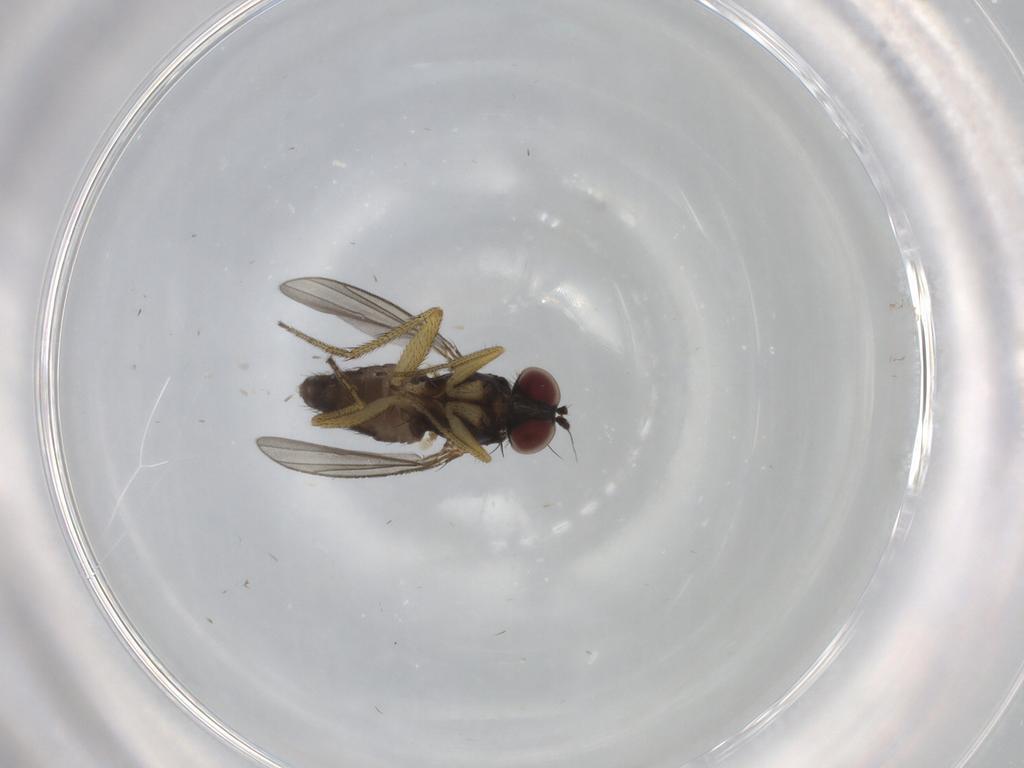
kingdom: Animalia
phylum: Arthropoda
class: Insecta
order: Diptera
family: Dolichopodidae
